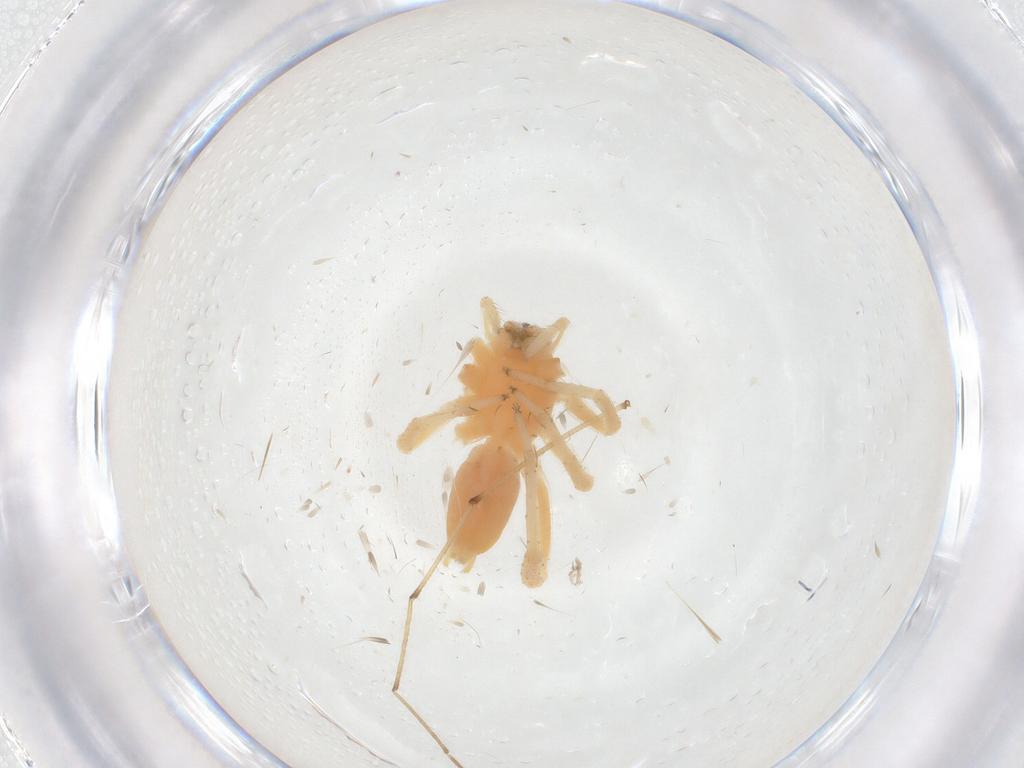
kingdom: Animalia
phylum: Arthropoda
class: Arachnida
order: Araneae
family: Anyphaenidae
